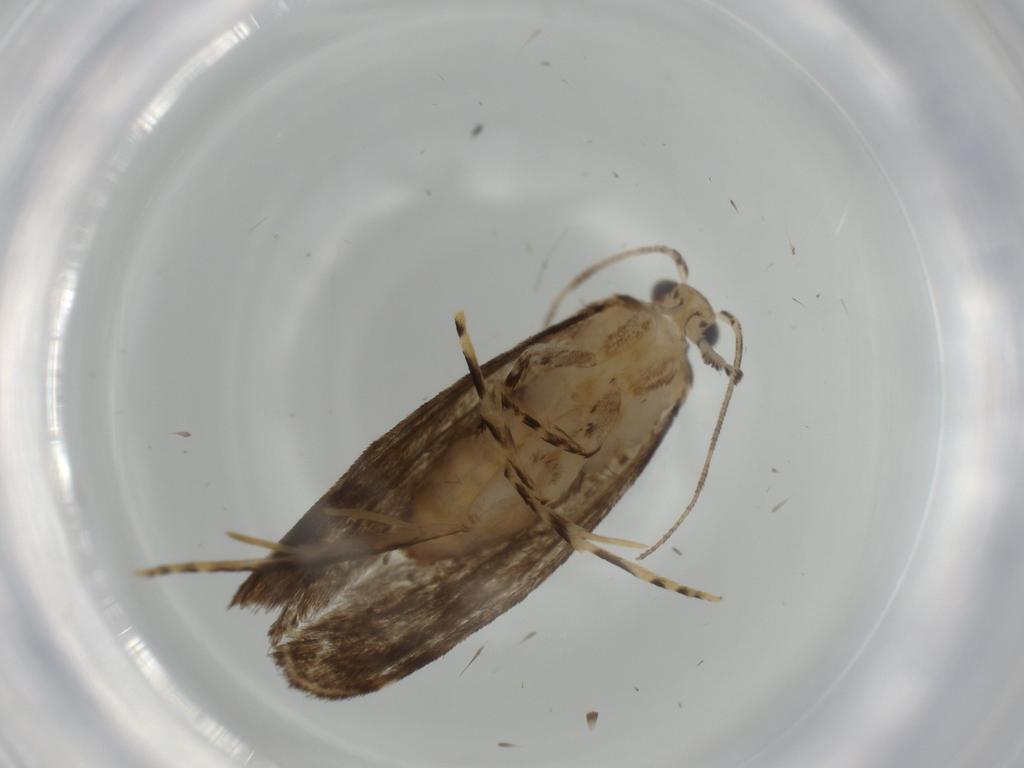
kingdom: Animalia
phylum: Arthropoda
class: Insecta
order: Lepidoptera
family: Tineidae
